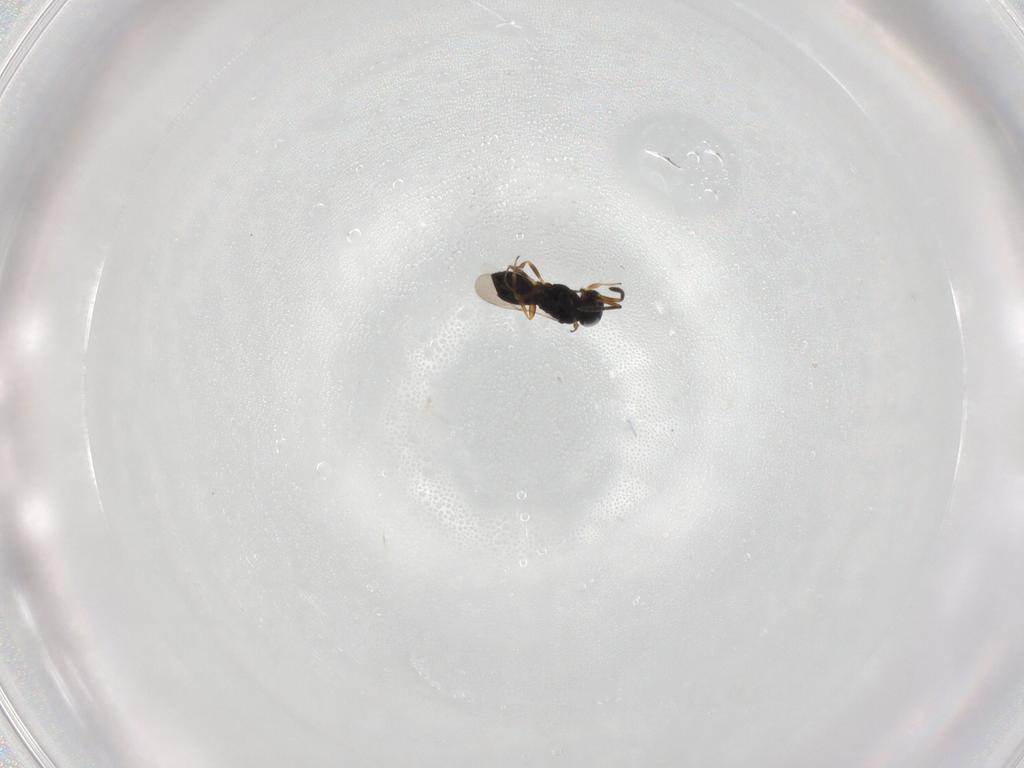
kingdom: Animalia
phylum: Arthropoda
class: Insecta
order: Hymenoptera
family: Scelionidae
